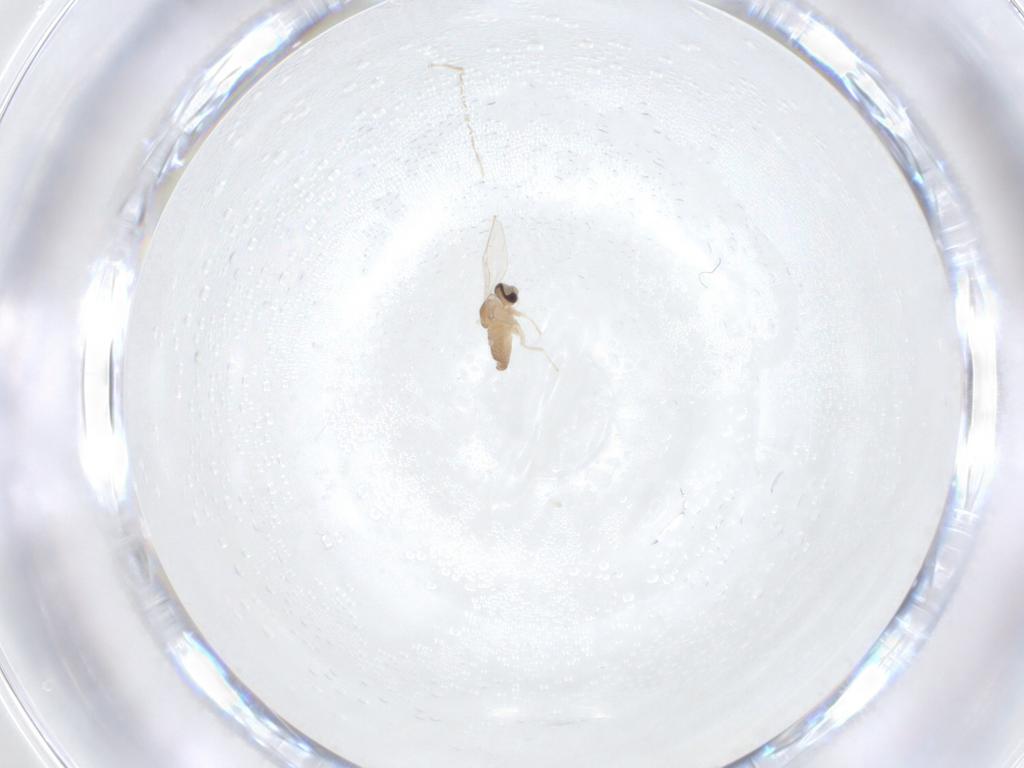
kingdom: Animalia
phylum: Arthropoda
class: Insecta
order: Diptera
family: Cecidomyiidae
